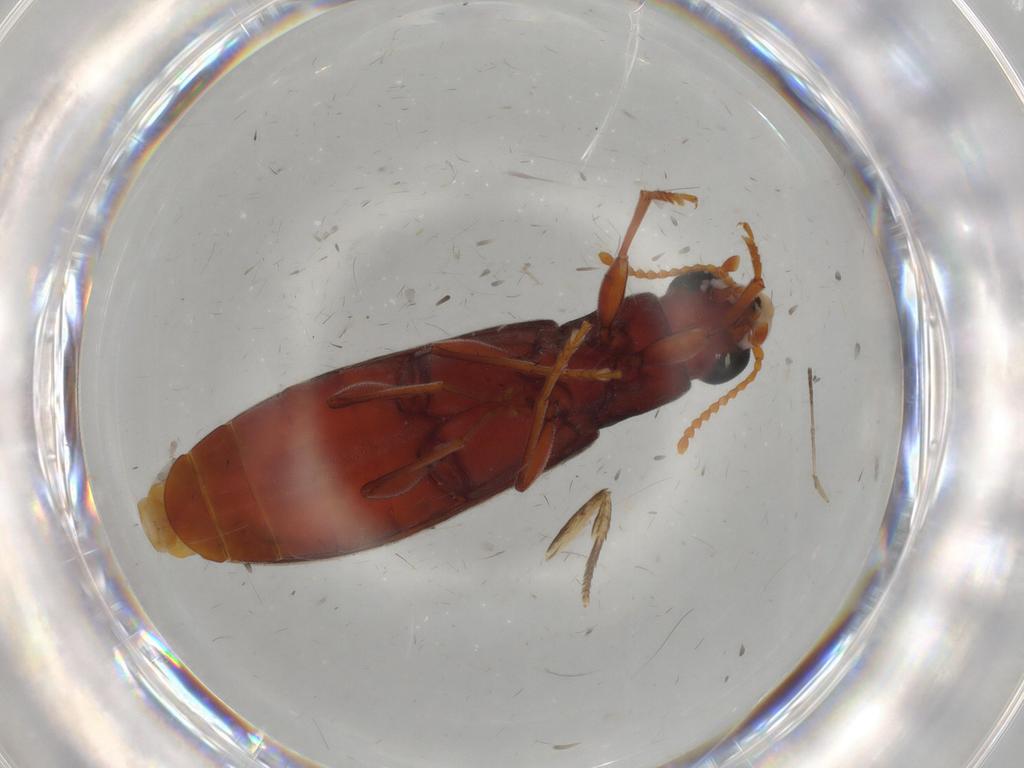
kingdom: Animalia
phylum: Arthropoda
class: Insecta
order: Coleoptera
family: Mycteridae
